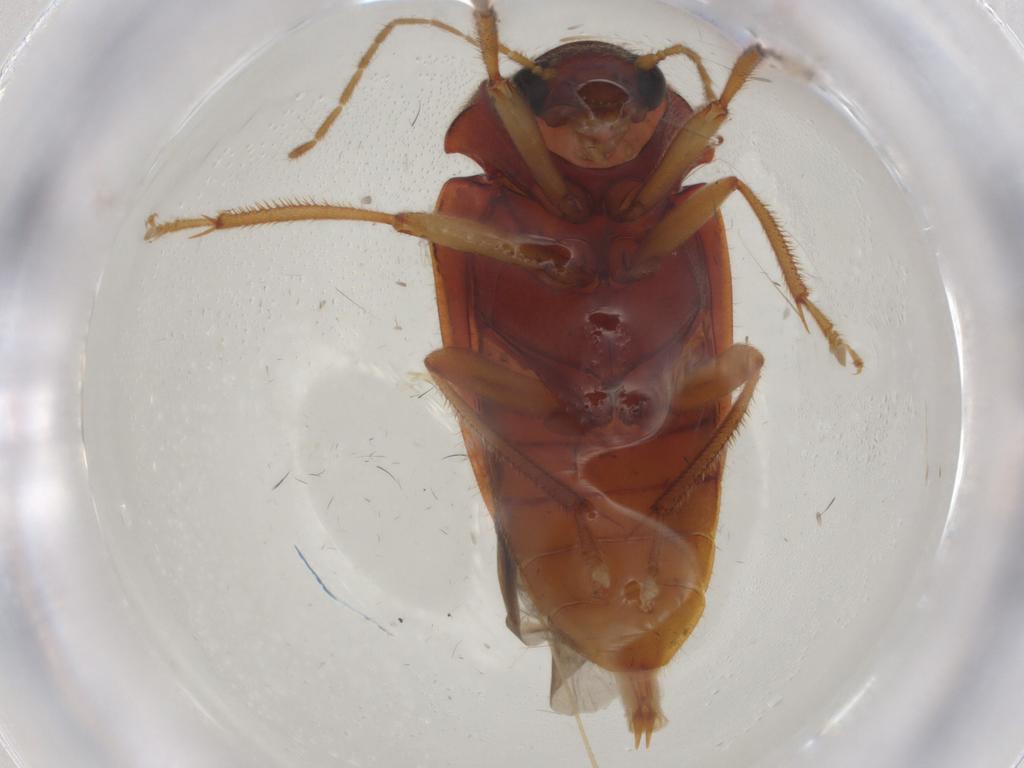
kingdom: Animalia
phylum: Arthropoda
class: Insecta
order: Coleoptera
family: Ptilodactylidae
